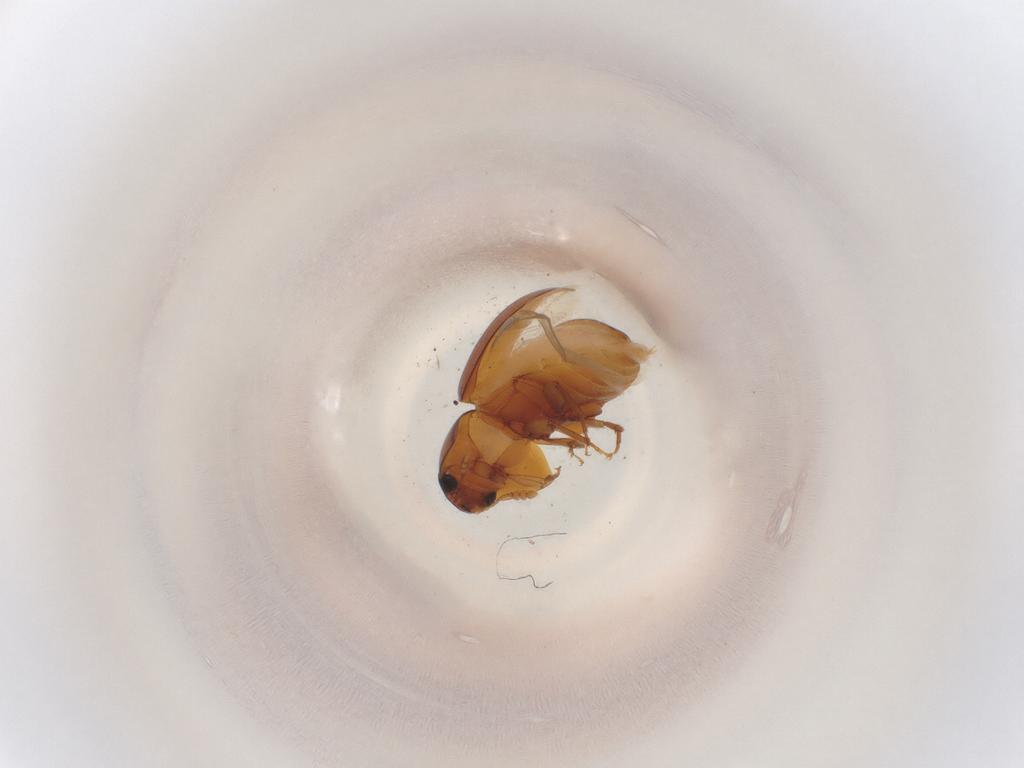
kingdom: Animalia
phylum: Arthropoda
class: Insecta
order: Coleoptera
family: Phalacridae
